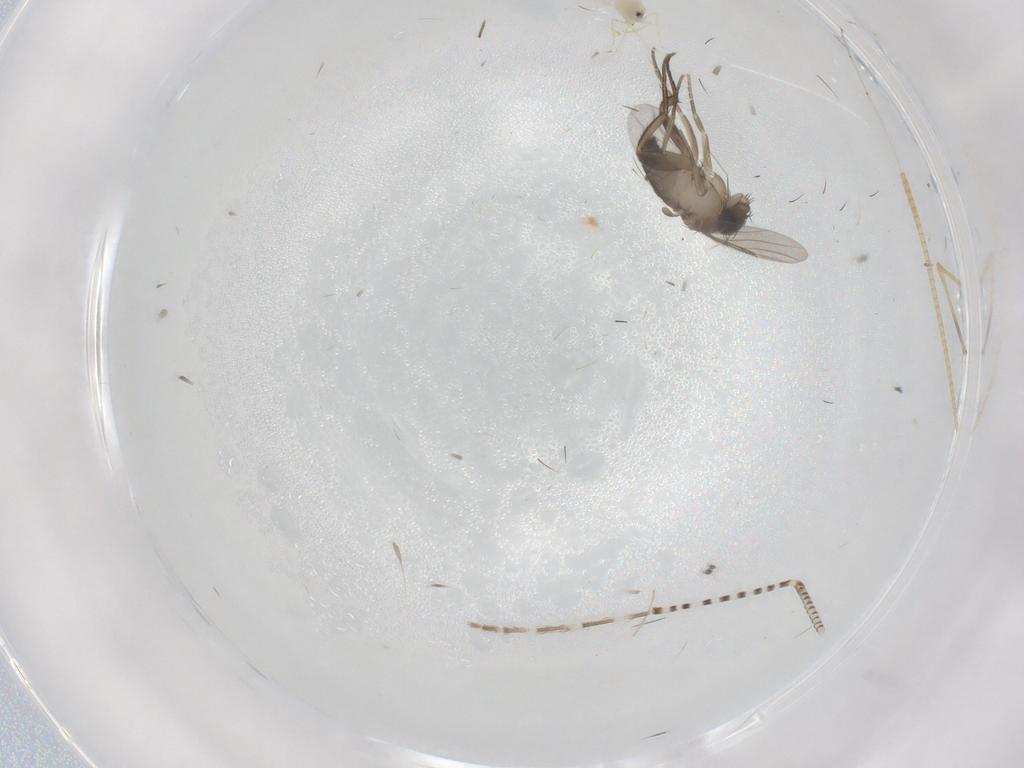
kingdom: Animalia
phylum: Arthropoda
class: Insecta
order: Diptera
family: Phoridae
